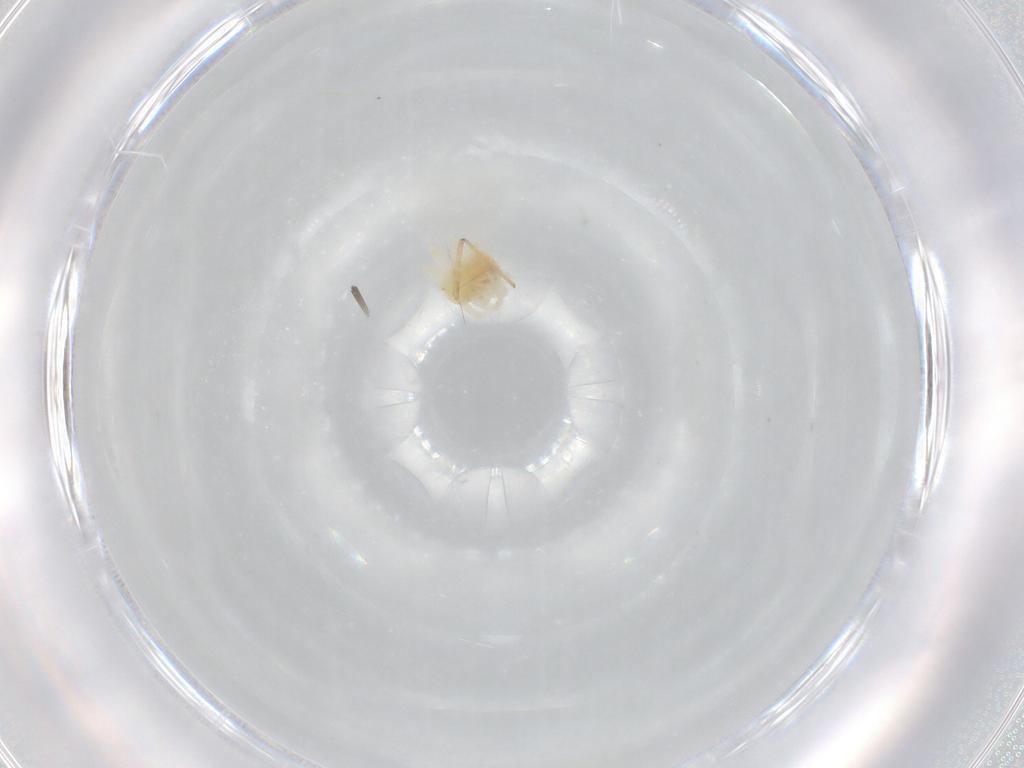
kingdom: Animalia
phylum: Arthropoda
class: Arachnida
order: Trombidiformes
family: Anystidae
